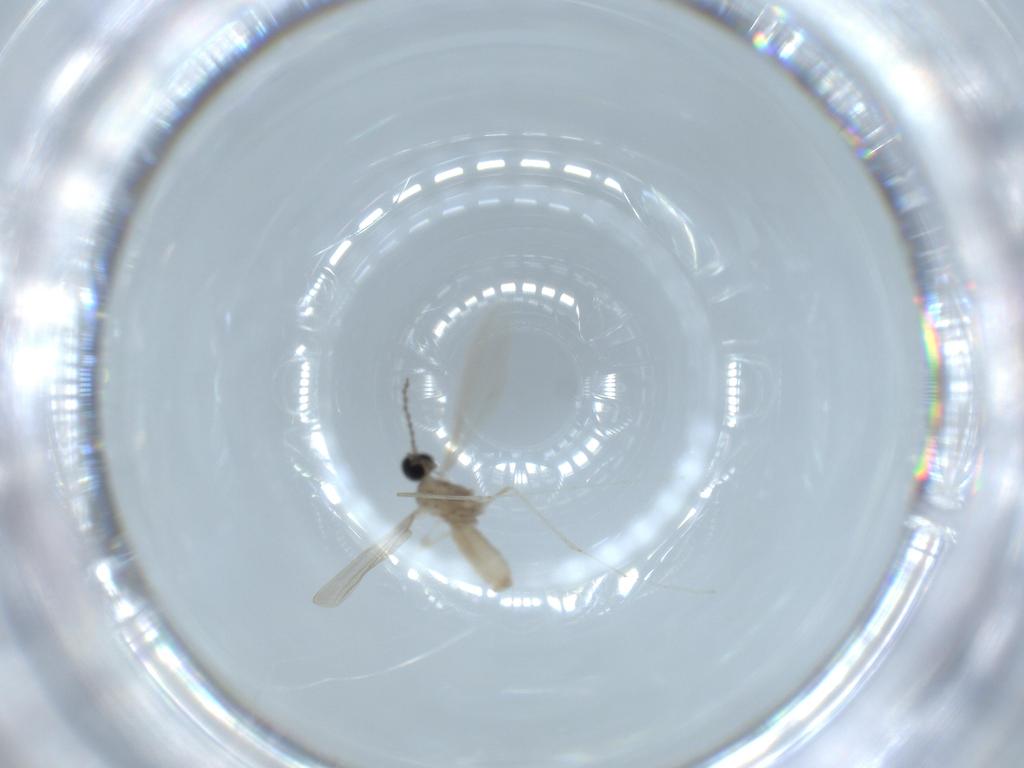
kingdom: Animalia
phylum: Arthropoda
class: Insecta
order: Diptera
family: Cecidomyiidae
